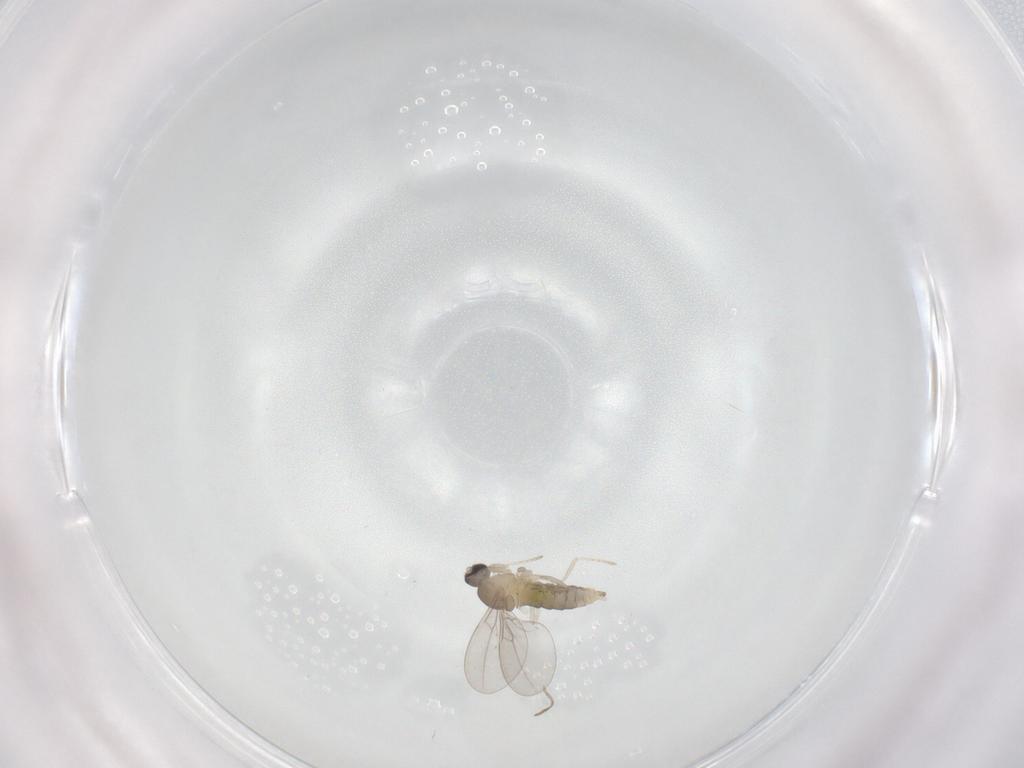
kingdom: Animalia
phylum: Arthropoda
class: Insecta
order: Diptera
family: Cecidomyiidae
